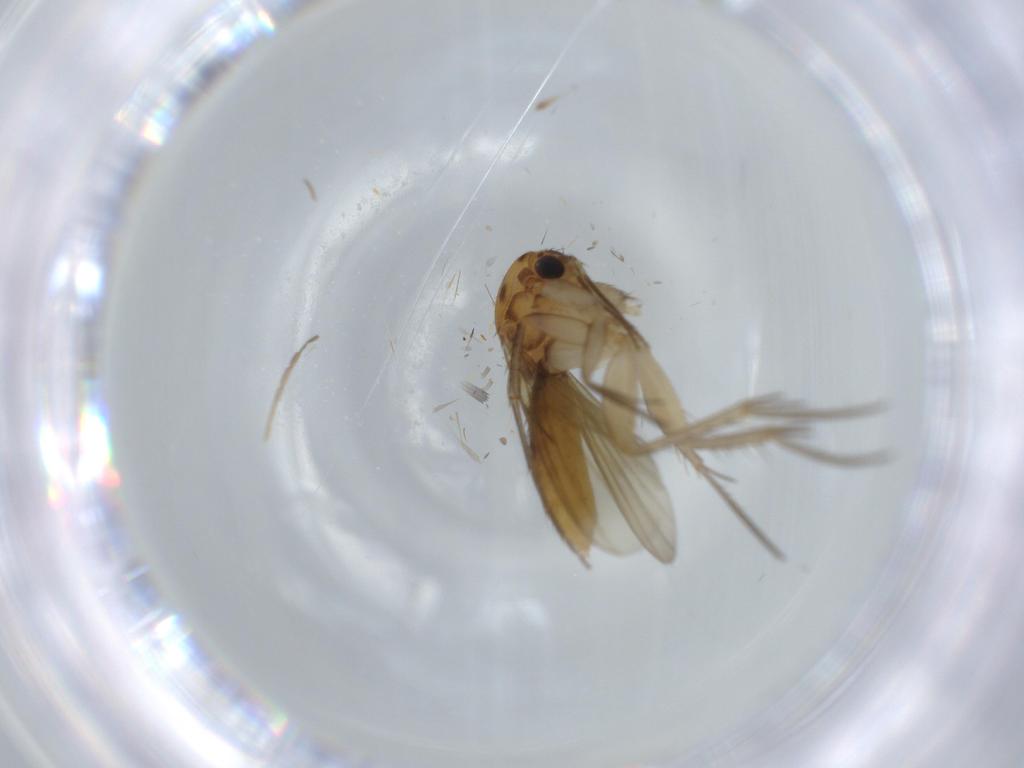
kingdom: Animalia
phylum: Arthropoda
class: Insecta
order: Diptera
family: Mycetophilidae
